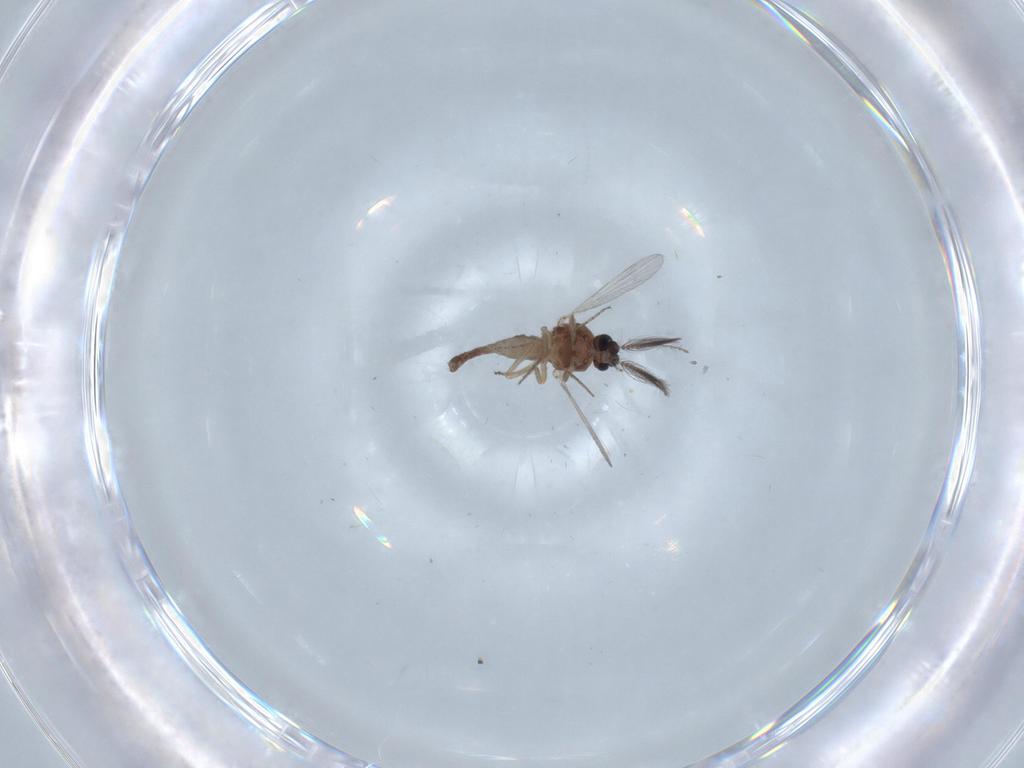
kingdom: Animalia
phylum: Arthropoda
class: Insecta
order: Diptera
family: Ceratopogonidae
